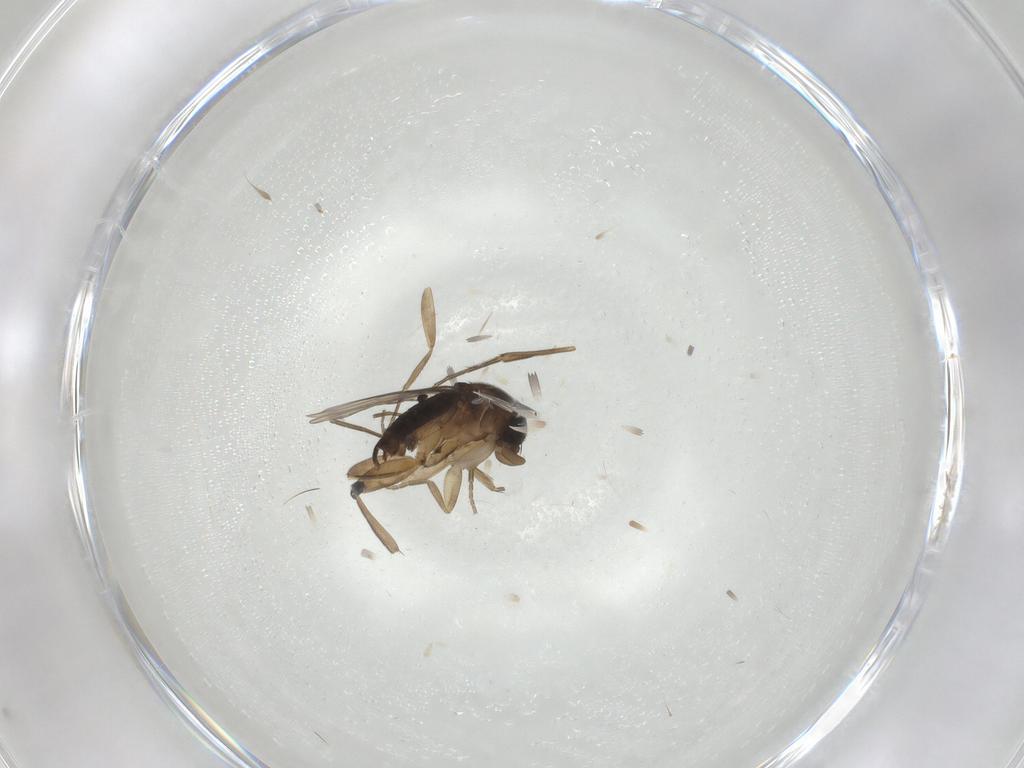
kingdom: Animalia
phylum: Arthropoda
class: Insecta
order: Diptera
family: Phoridae
